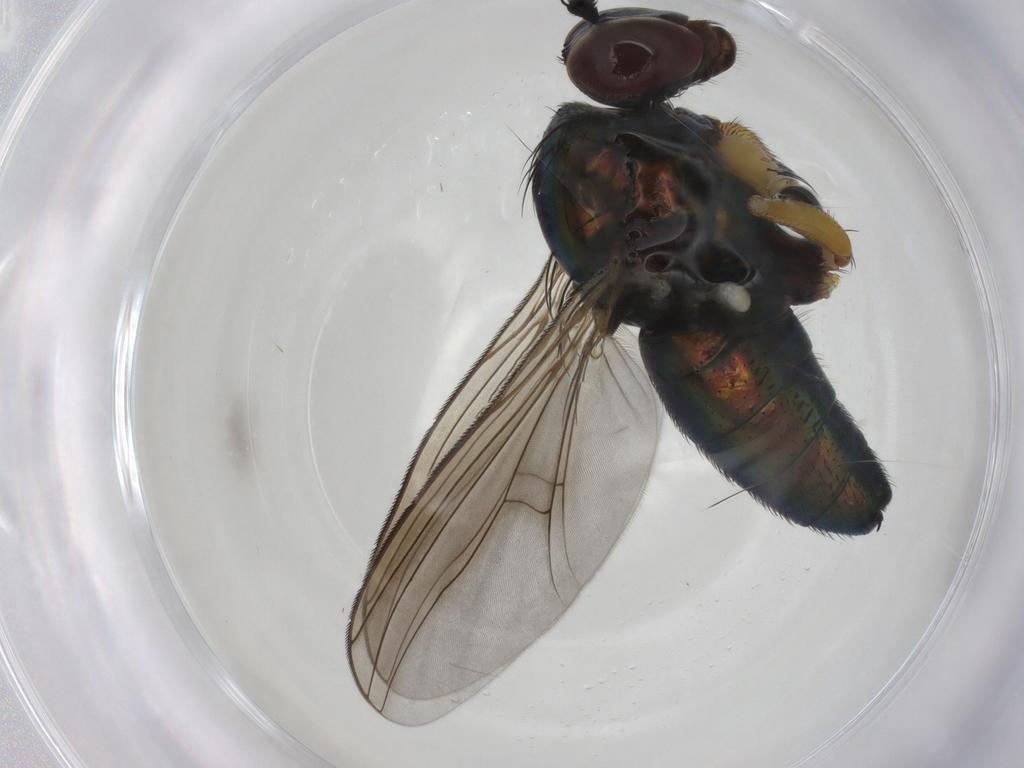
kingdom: Animalia
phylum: Arthropoda
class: Insecta
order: Diptera
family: Dolichopodidae
